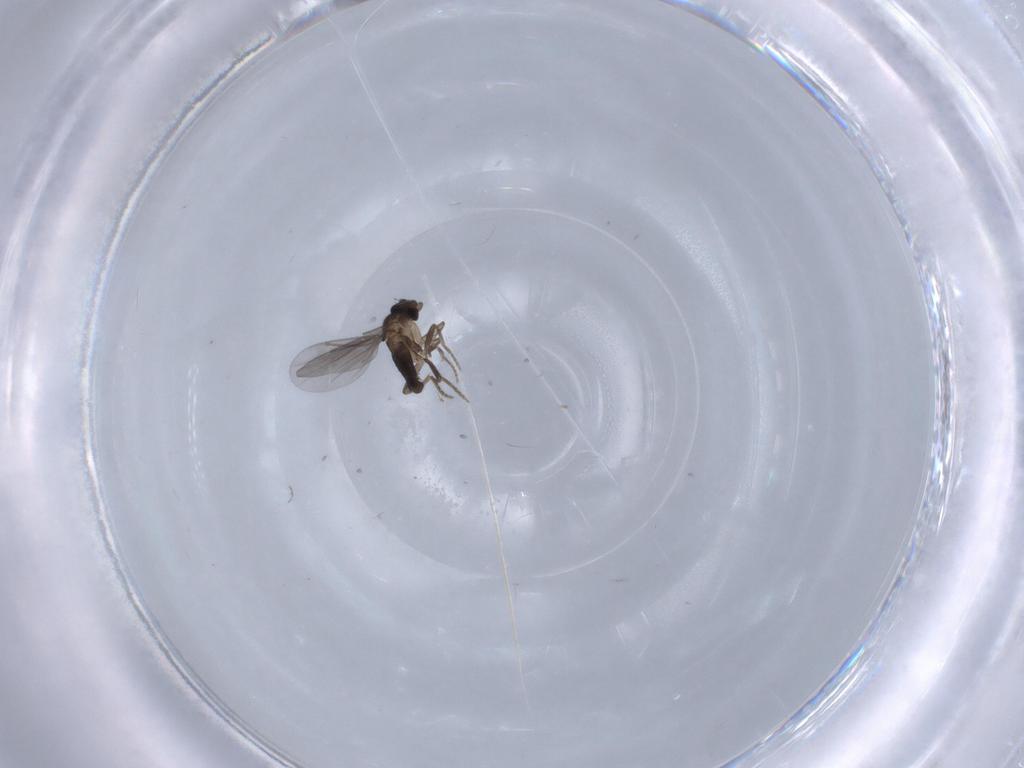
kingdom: Animalia
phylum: Arthropoda
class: Insecta
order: Diptera
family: Chironomidae
